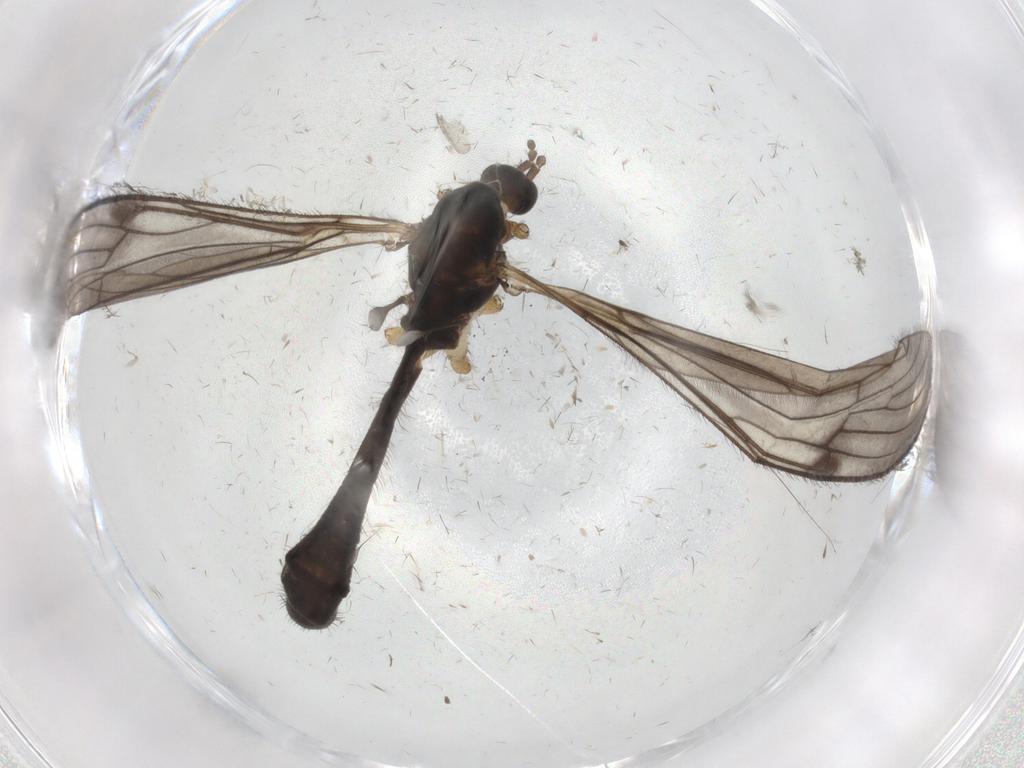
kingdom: Animalia
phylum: Arthropoda
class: Insecta
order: Diptera
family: Limoniidae
